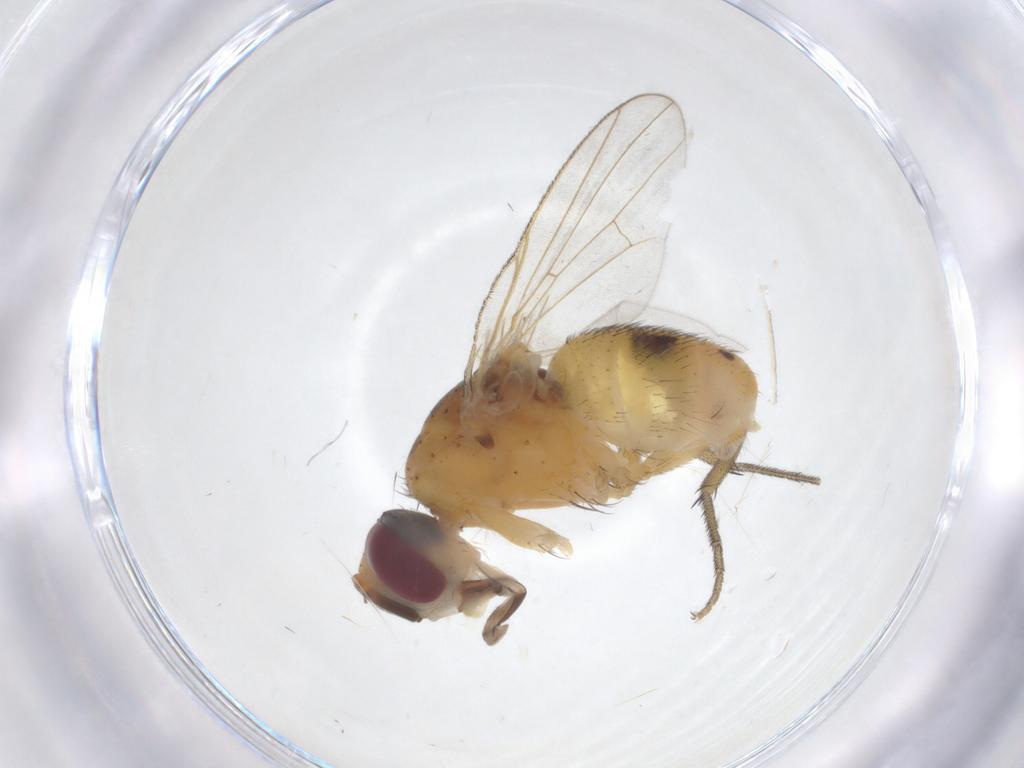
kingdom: Animalia
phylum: Arthropoda
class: Insecta
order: Diptera
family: Muscidae
